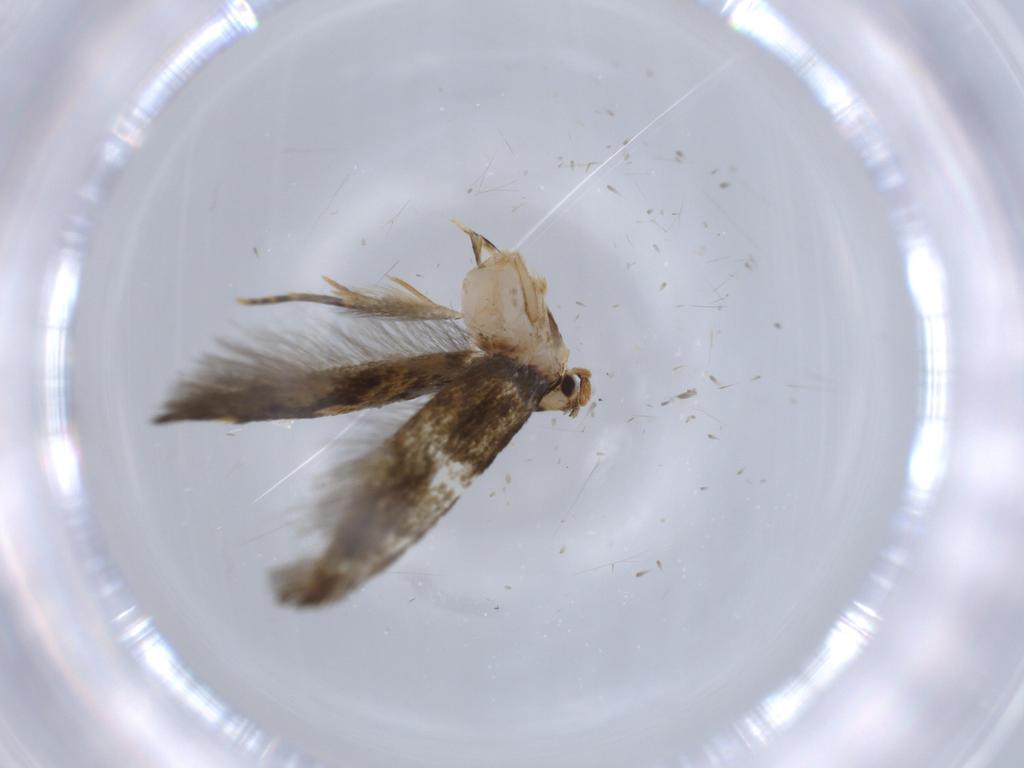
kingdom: Animalia
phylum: Arthropoda
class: Insecta
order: Lepidoptera
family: Tineidae
